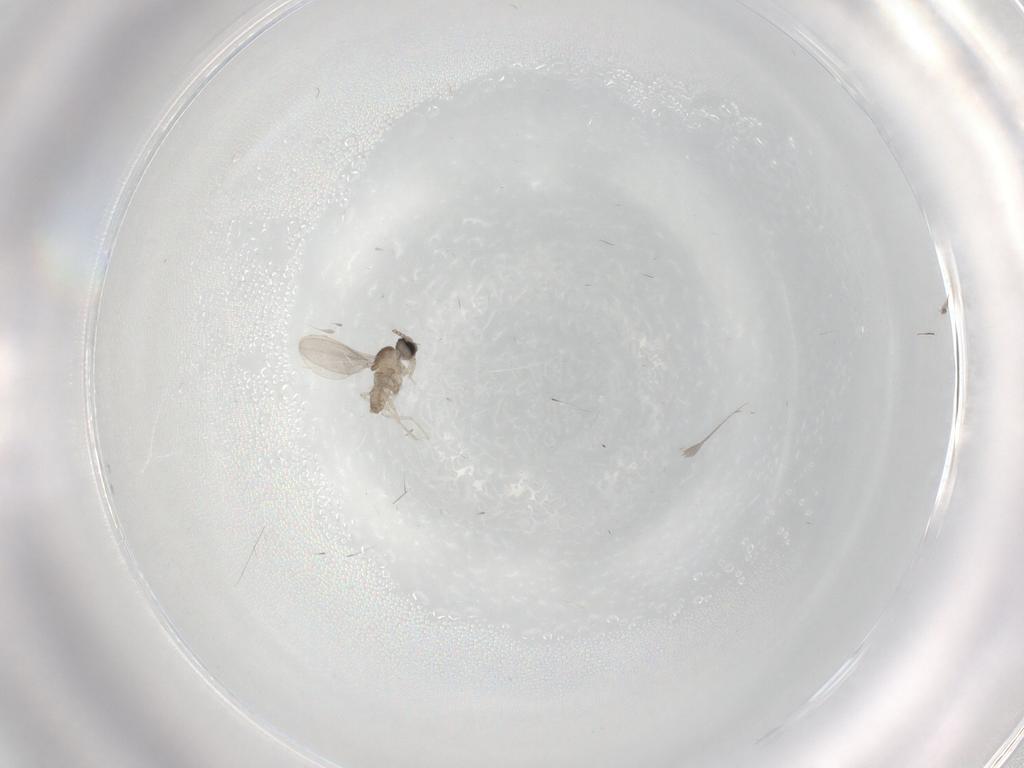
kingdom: Animalia
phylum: Arthropoda
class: Insecta
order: Diptera
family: Cecidomyiidae
